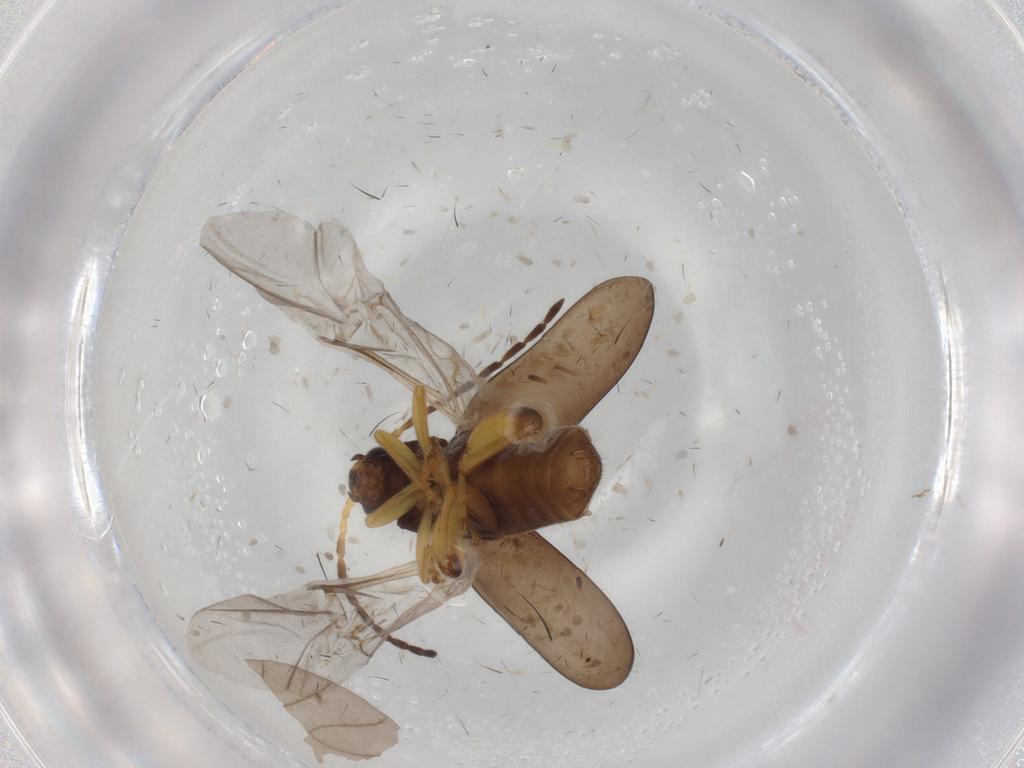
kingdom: Animalia
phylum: Arthropoda
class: Insecta
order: Coleoptera
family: Chrysomelidae
